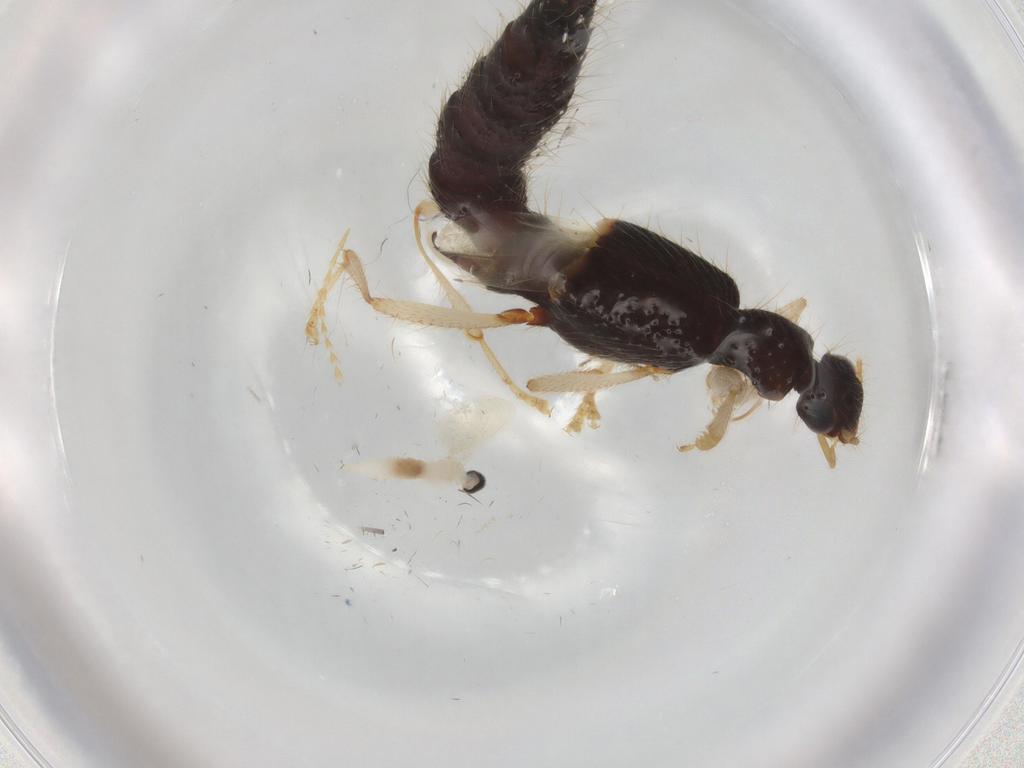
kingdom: Animalia
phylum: Arthropoda
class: Insecta
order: Coleoptera
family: Staphylinidae
